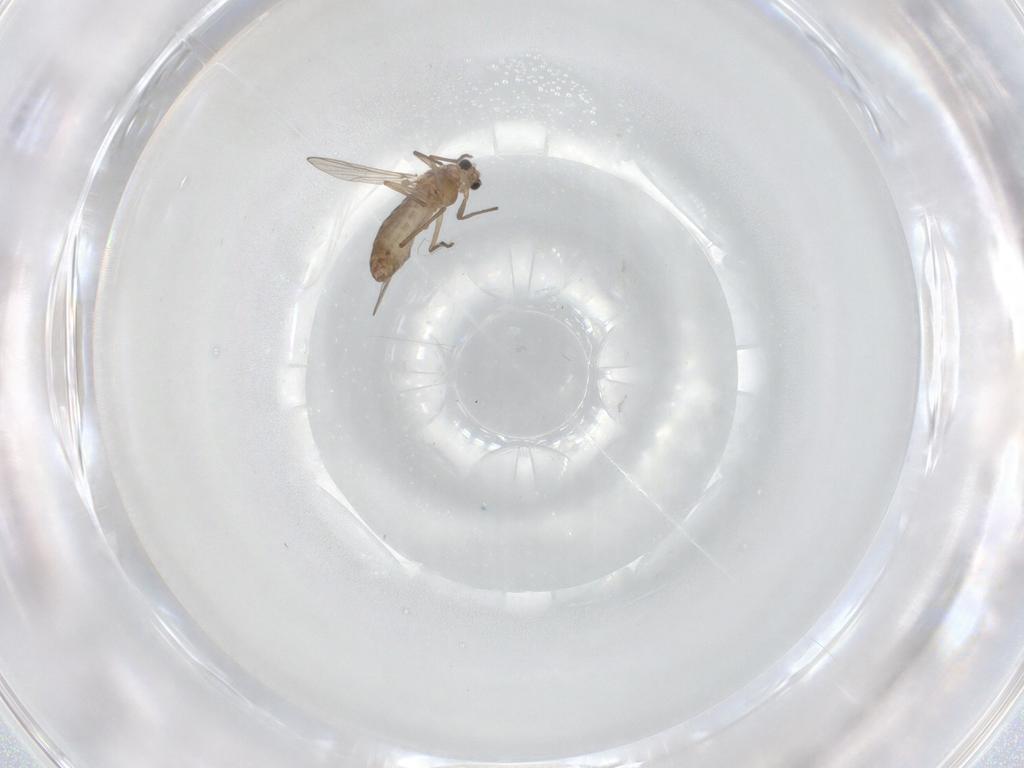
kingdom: Animalia
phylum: Arthropoda
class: Insecta
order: Diptera
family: Chironomidae
